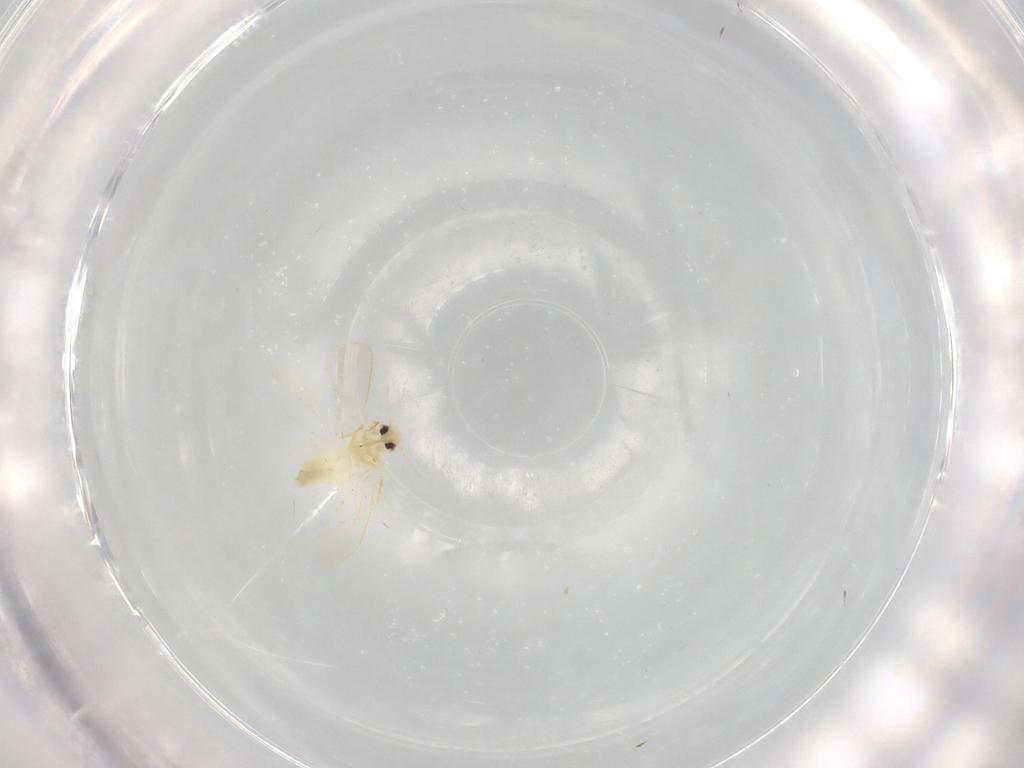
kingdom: Animalia
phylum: Arthropoda
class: Insecta
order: Hemiptera
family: Aleyrodidae
